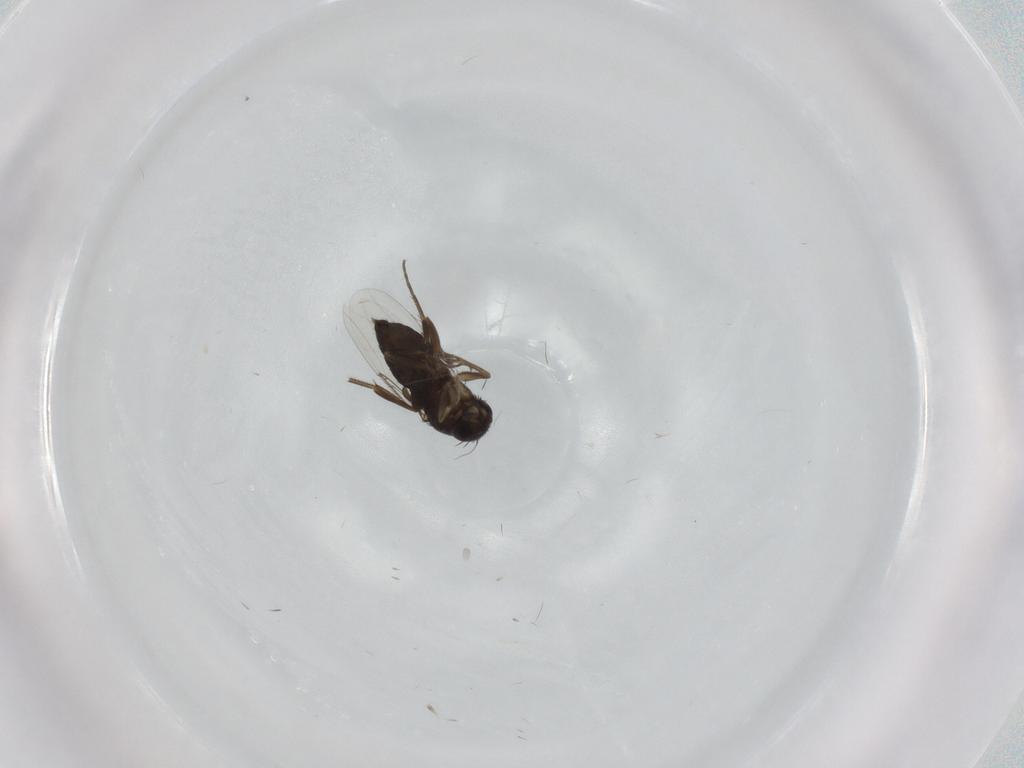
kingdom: Animalia
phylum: Arthropoda
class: Insecta
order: Diptera
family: Phoridae
